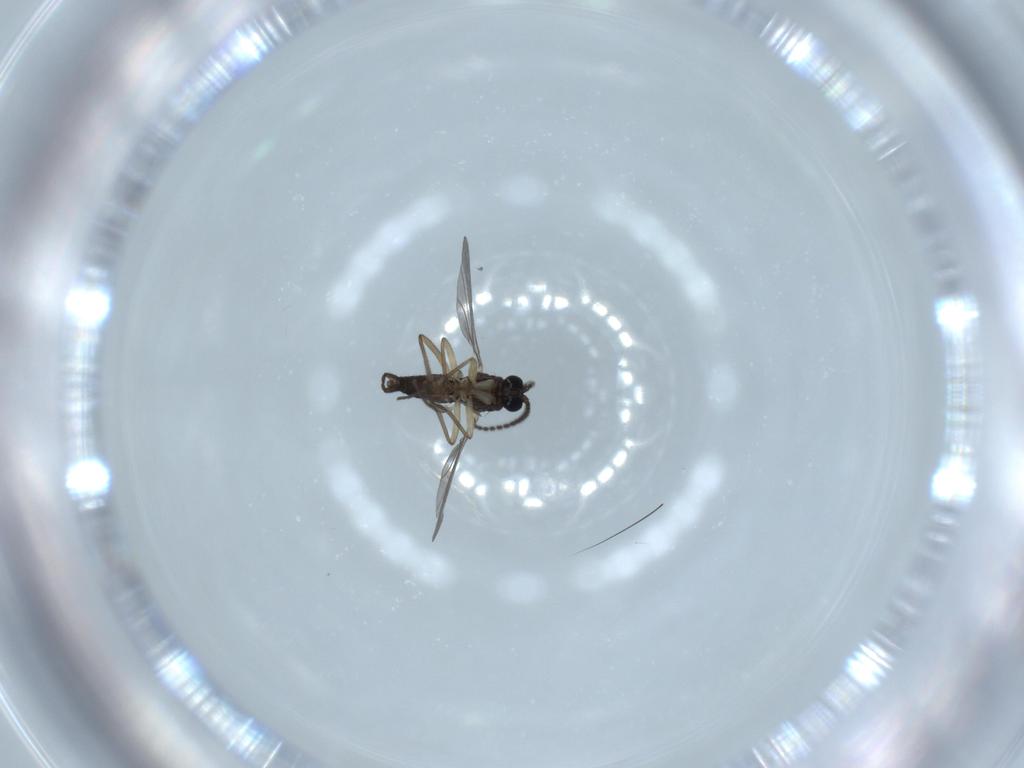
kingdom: Animalia
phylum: Arthropoda
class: Insecta
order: Diptera
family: Sciaridae
